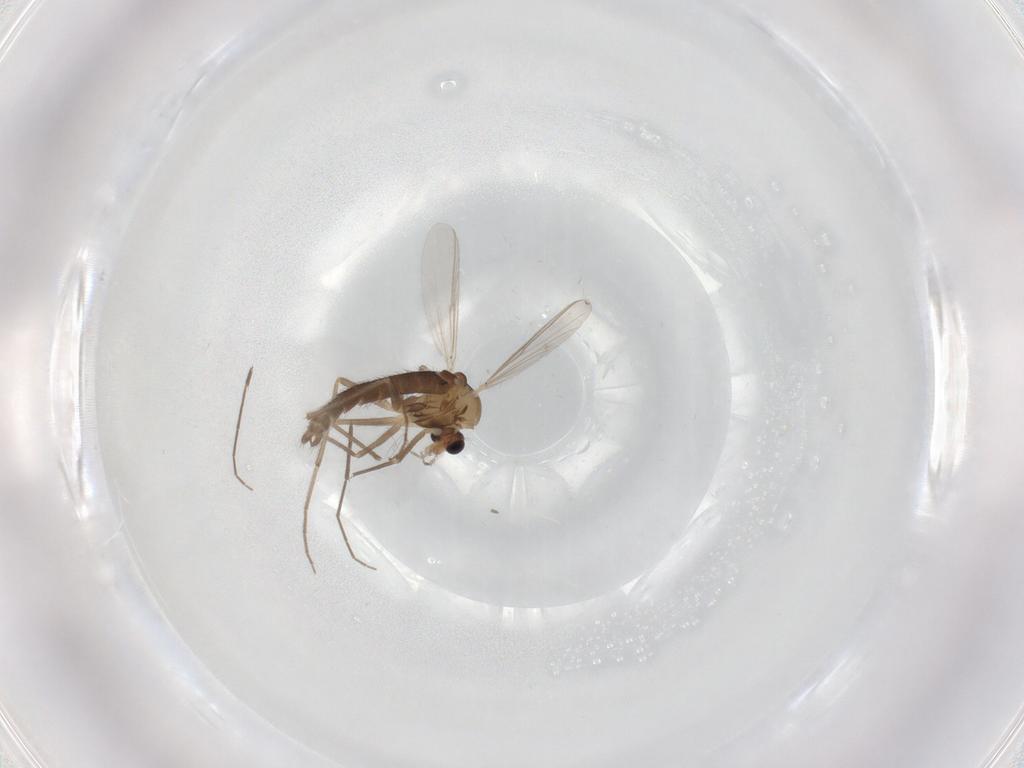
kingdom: Animalia
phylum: Arthropoda
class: Insecta
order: Diptera
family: Chironomidae
